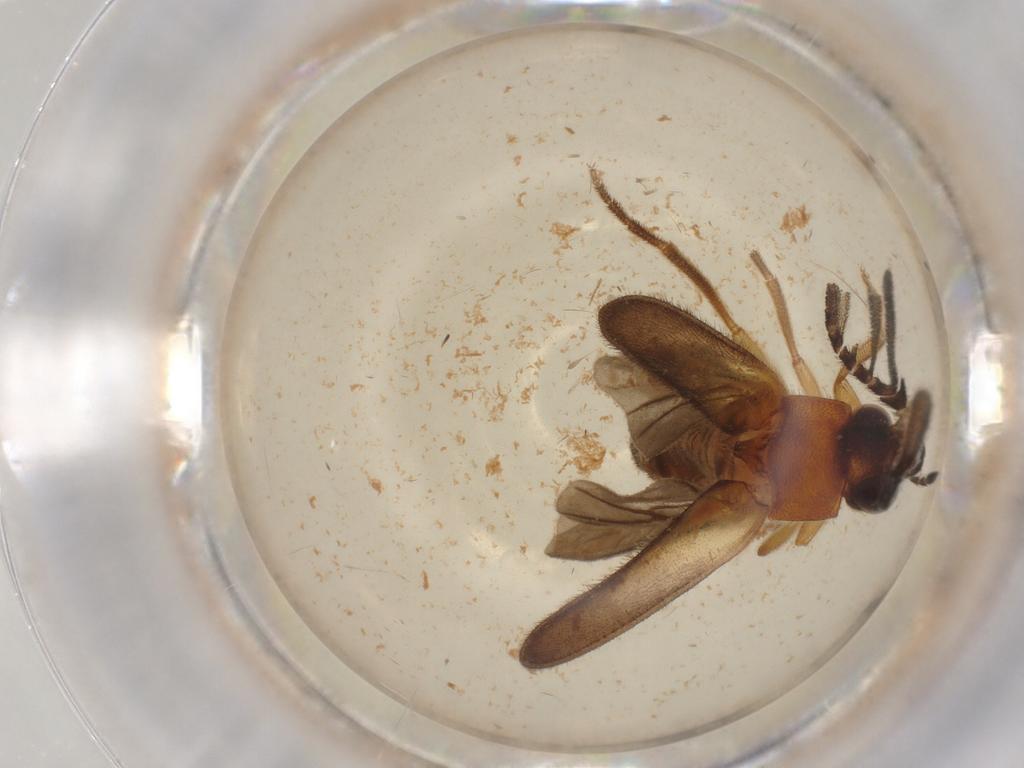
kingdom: Animalia
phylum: Arthropoda
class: Insecta
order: Coleoptera
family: Lampyridae
